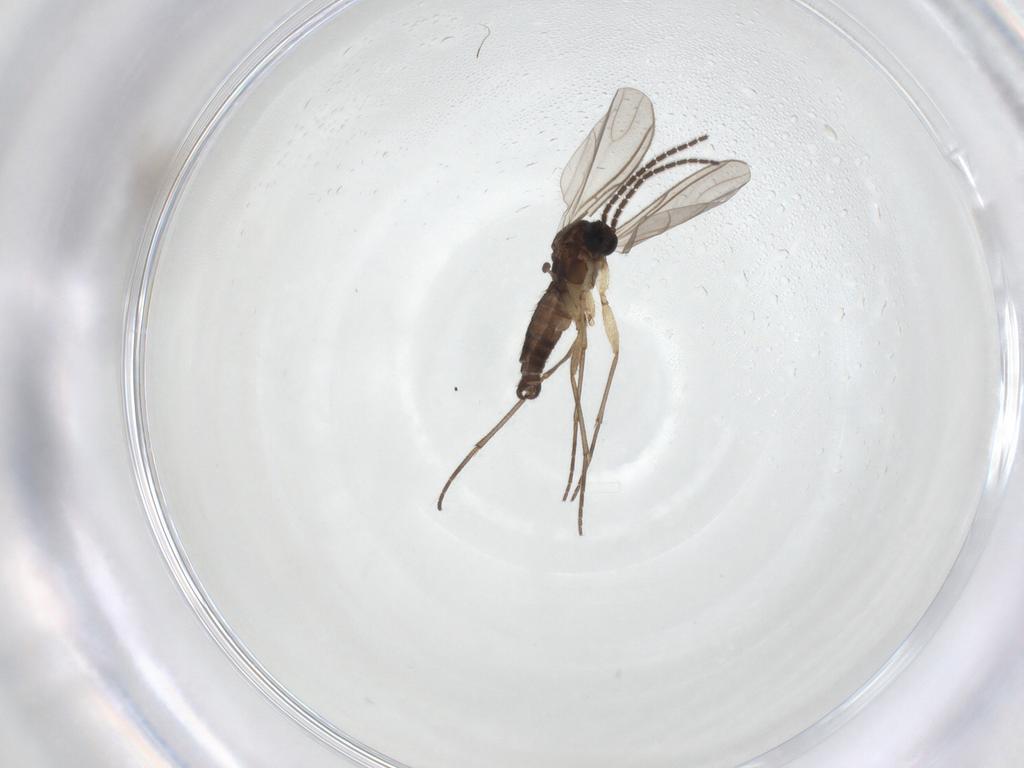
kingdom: Animalia
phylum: Arthropoda
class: Insecta
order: Diptera
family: Sciaridae
